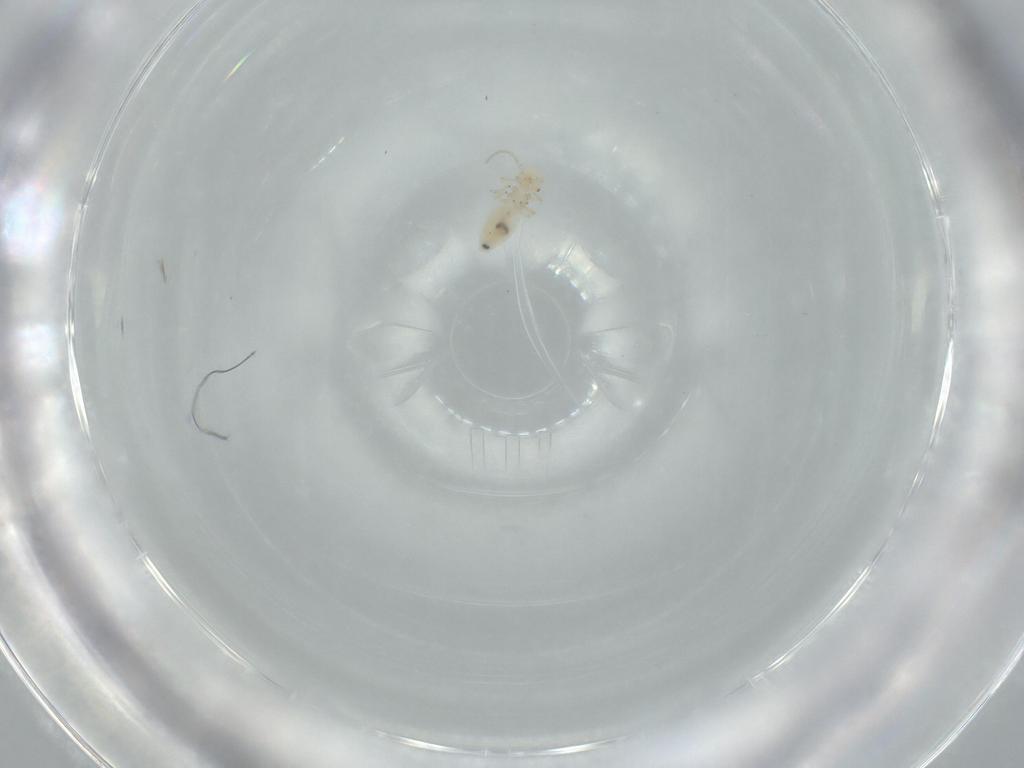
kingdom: Animalia
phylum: Arthropoda
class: Insecta
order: Psocodea
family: Caeciliusidae
